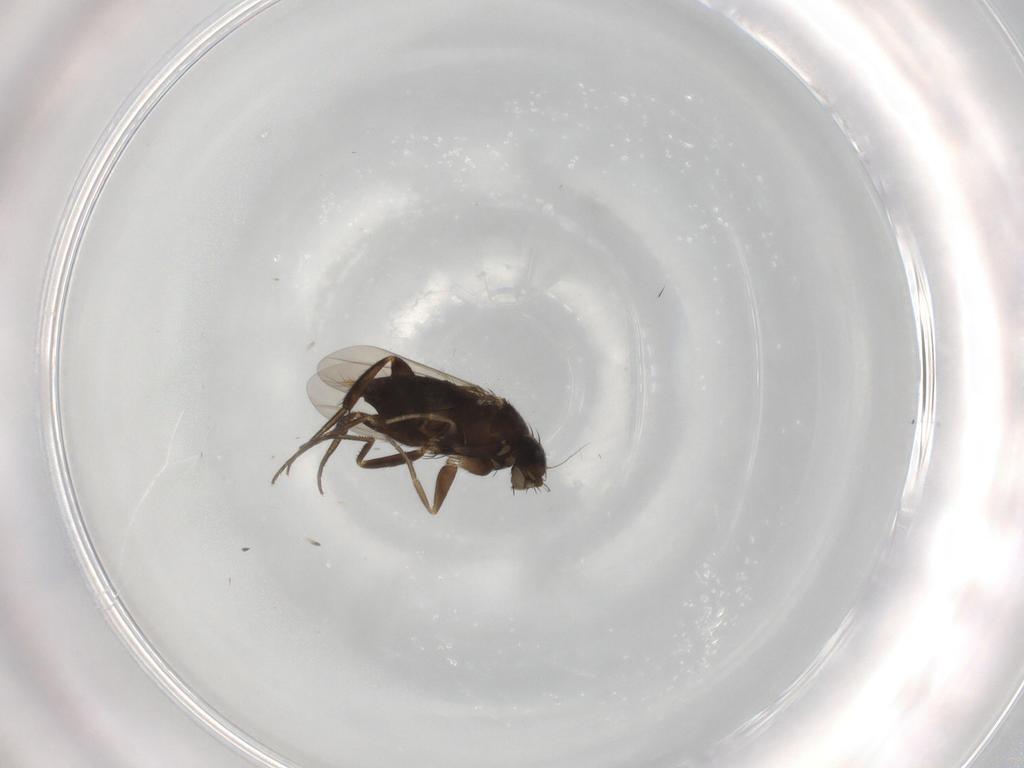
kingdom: Animalia
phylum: Arthropoda
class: Insecta
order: Diptera
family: Phoridae
